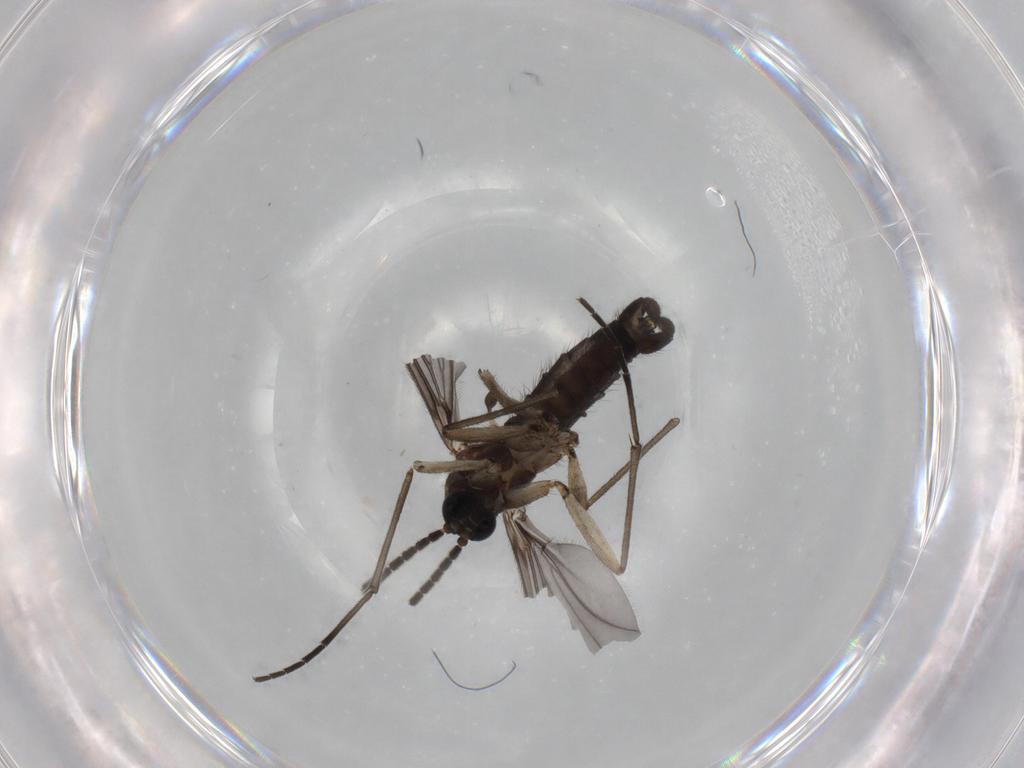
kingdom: Animalia
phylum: Arthropoda
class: Insecta
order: Diptera
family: Sciaridae
